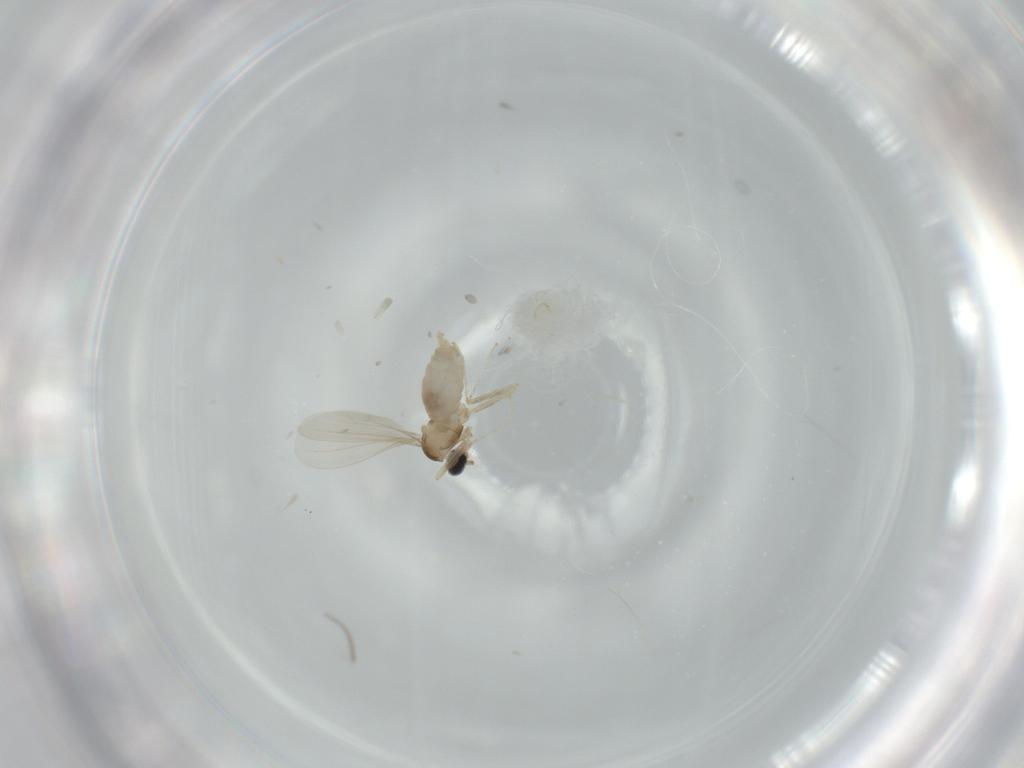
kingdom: Animalia
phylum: Arthropoda
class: Insecta
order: Diptera
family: Cecidomyiidae
